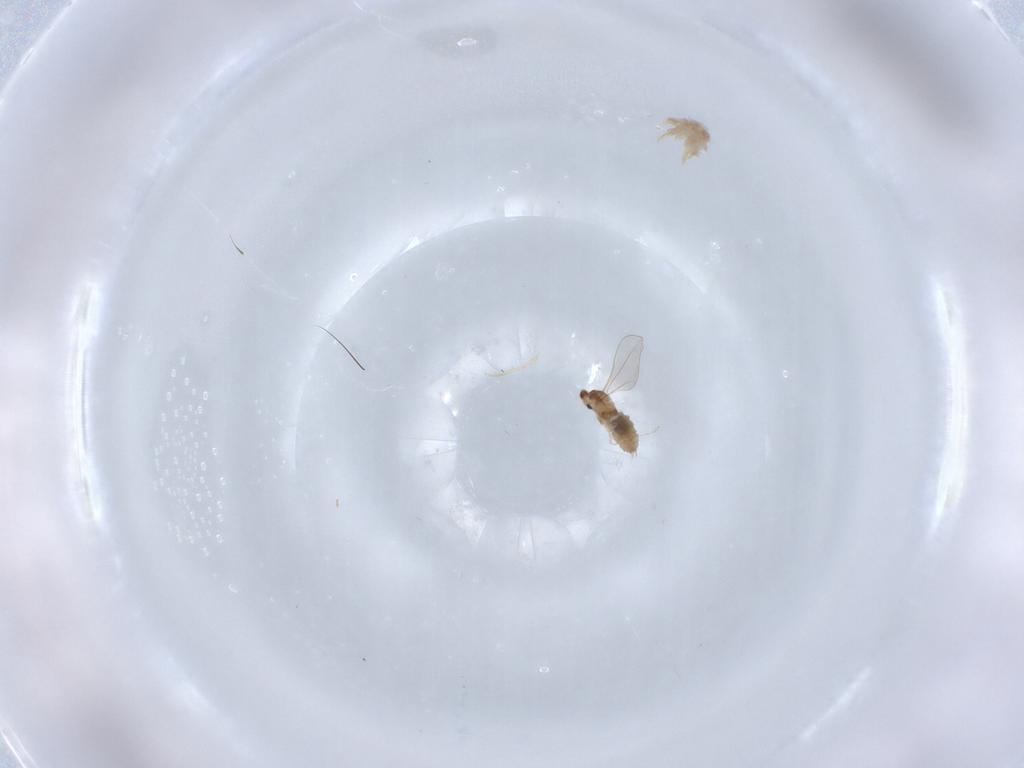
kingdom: Animalia
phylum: Arthropoda
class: Insecta
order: Diptera
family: Cecidomyiidae
